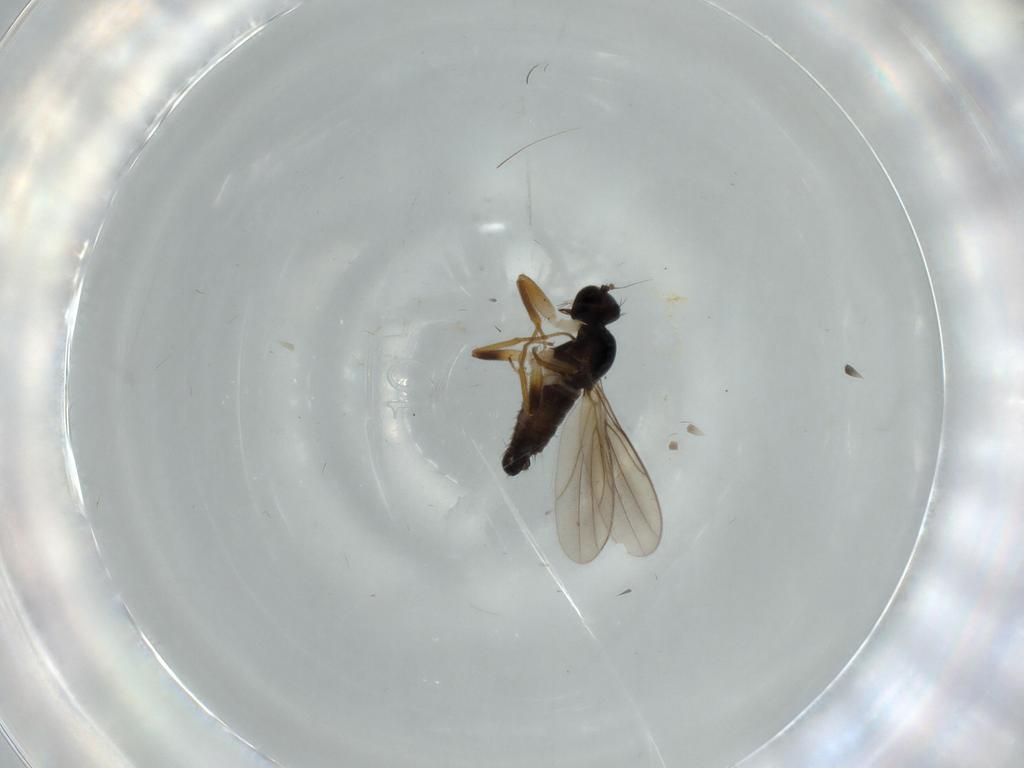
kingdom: Animalia
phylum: Arthropoda
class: Insecta
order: Diptera
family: Hybotidae
